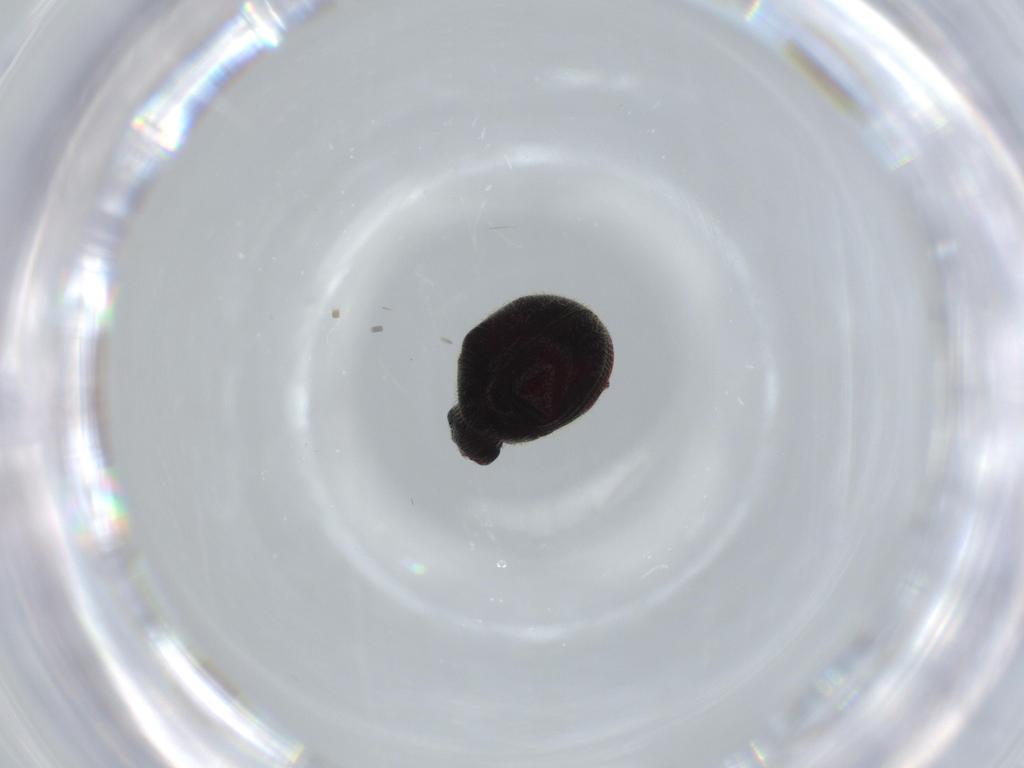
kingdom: Animalia
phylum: Arthropoda
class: Insecta
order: Coleoptera
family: Ptinidae
